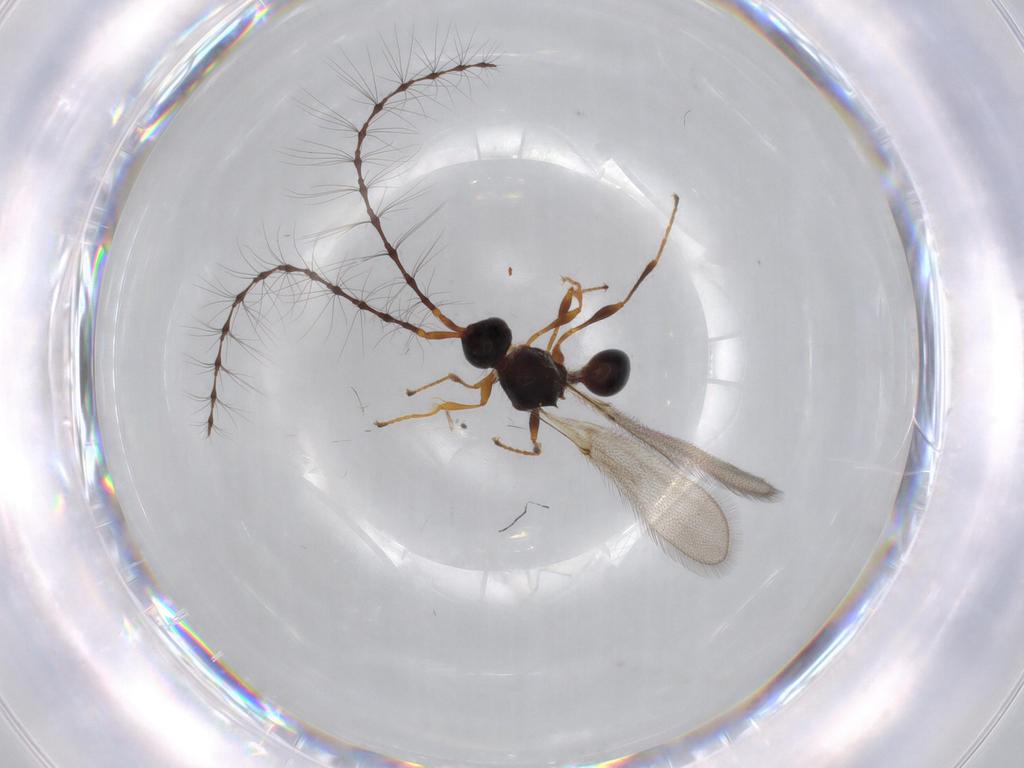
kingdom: Animalia
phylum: Arthropoda
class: Insecta
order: Hymenoptera
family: Diapriidae
